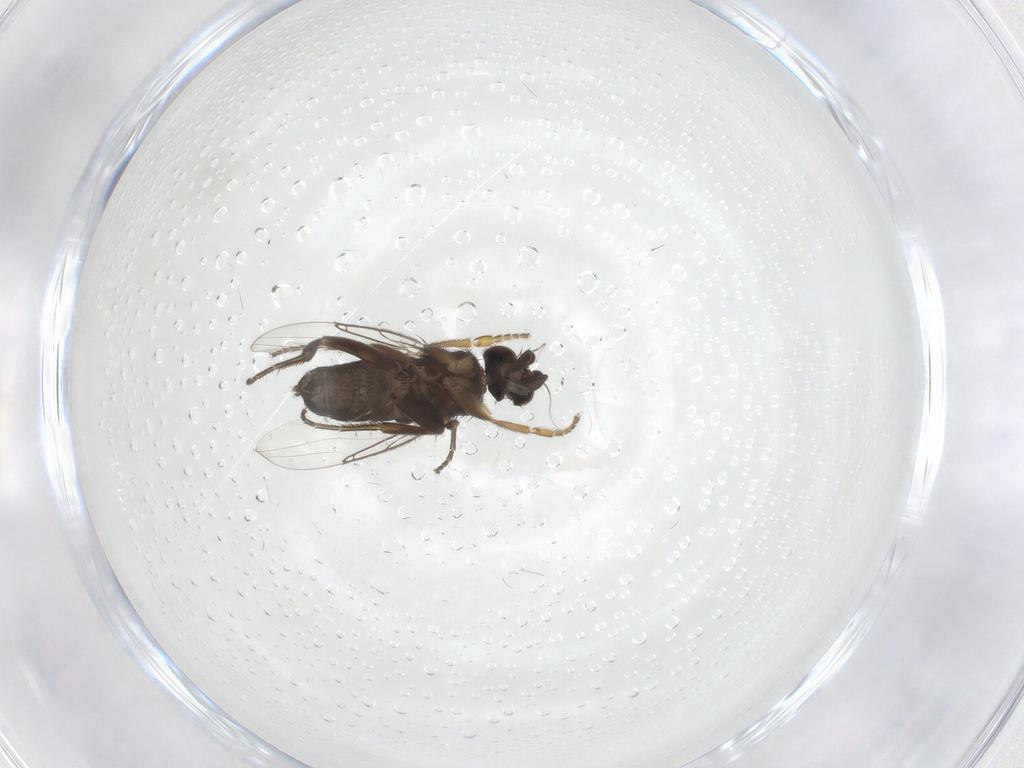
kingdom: Animalia
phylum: Arthropoda
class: Insecta
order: Diptera
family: Phoridae
